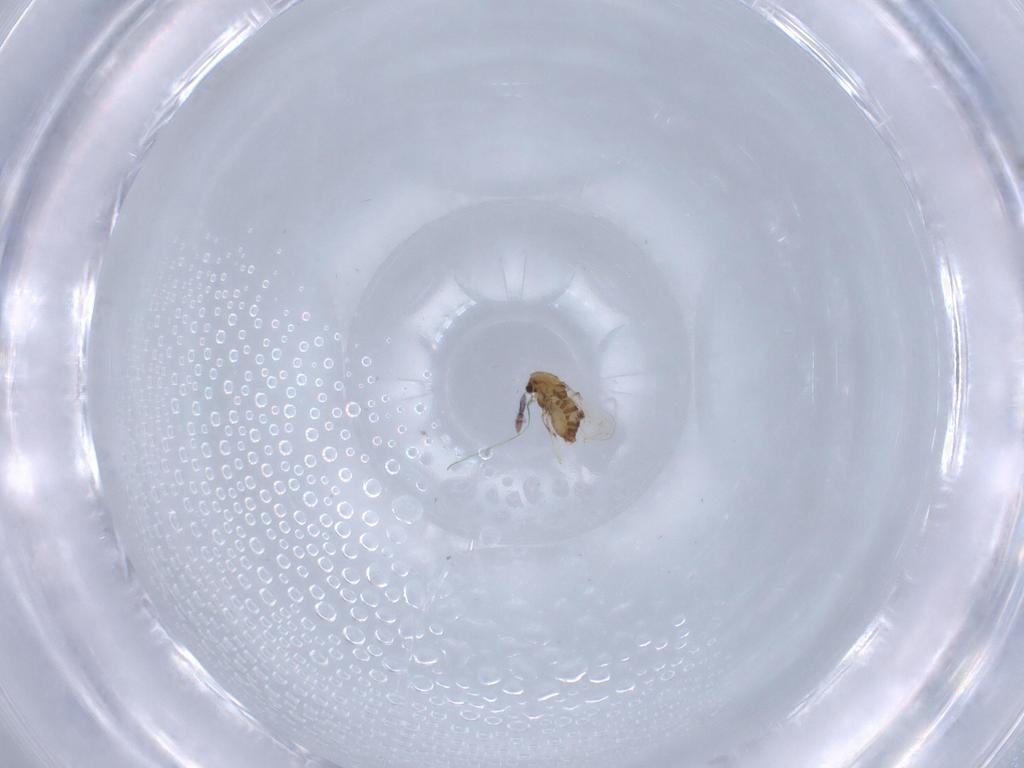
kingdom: Animalia
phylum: Arthropoda
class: Insecta
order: Diptera
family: Chironomidae
